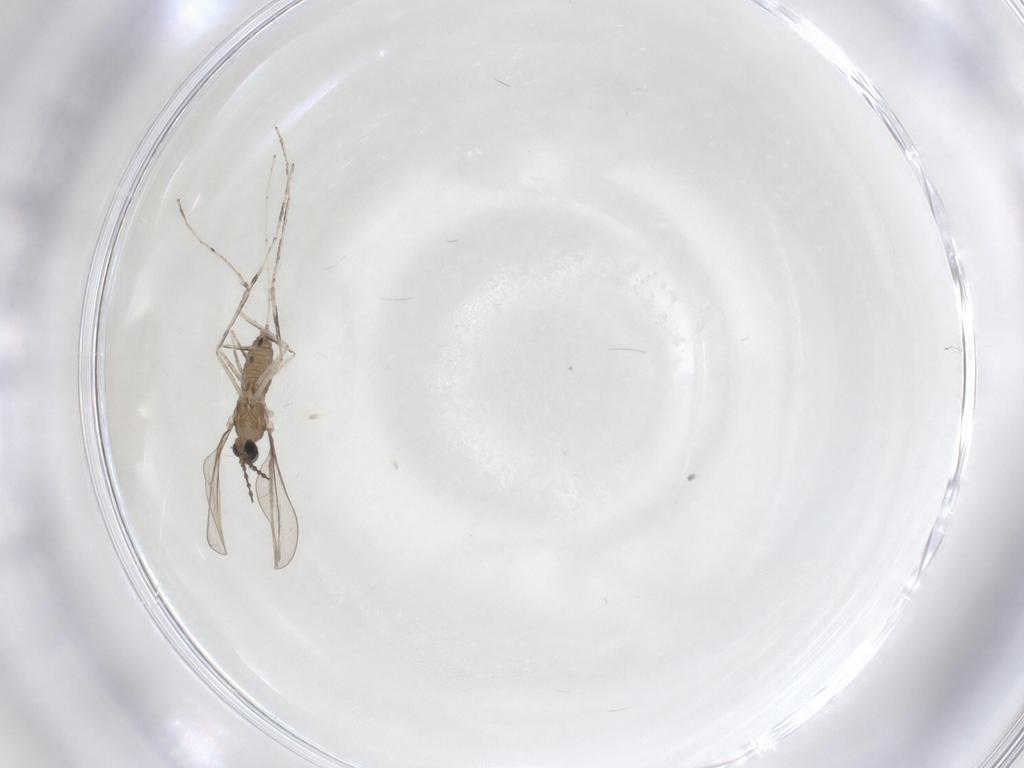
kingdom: Animalia
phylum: Arthropoda
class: Insecta
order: Diptera
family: Cecidomyiidae
